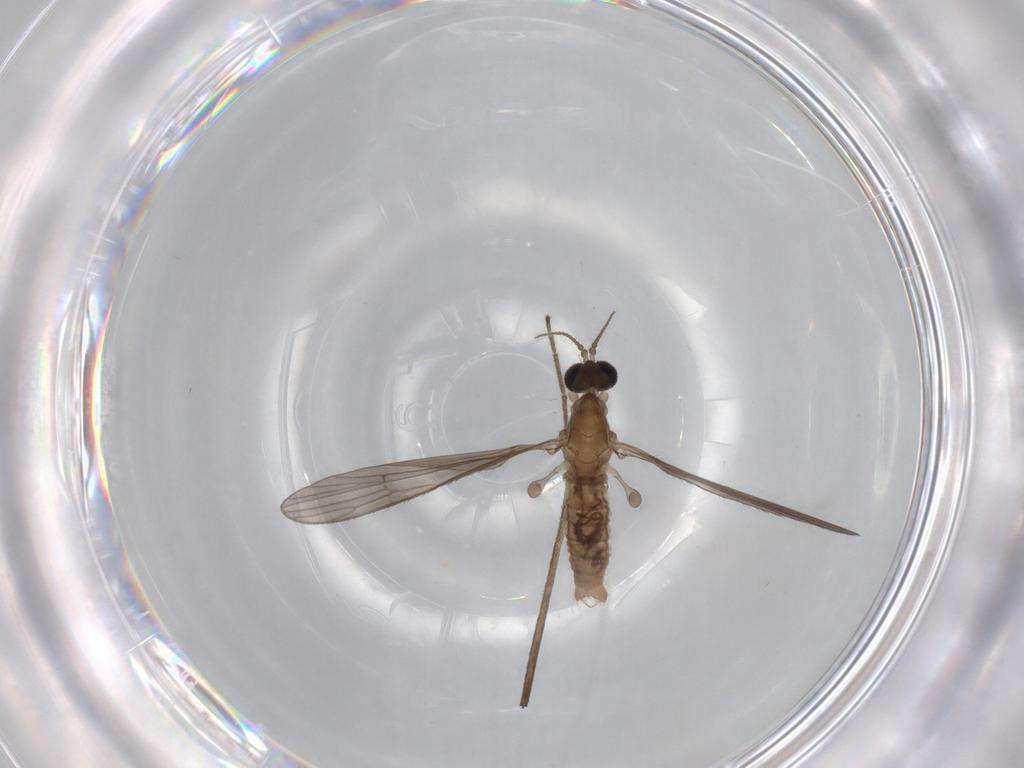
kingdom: Animalia
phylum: Arthropoda
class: Insecta
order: Diptera
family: Limoniidae
